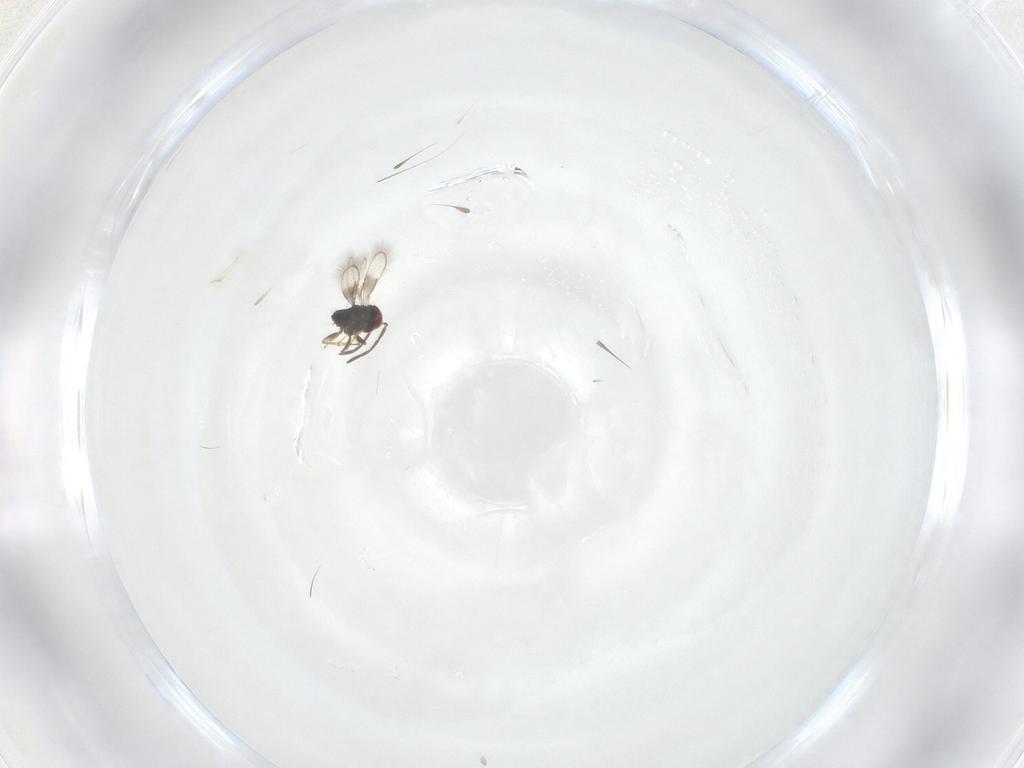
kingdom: Animalia
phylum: Arthropoda
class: Insecta
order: Hymenoptera
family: Azotidae
